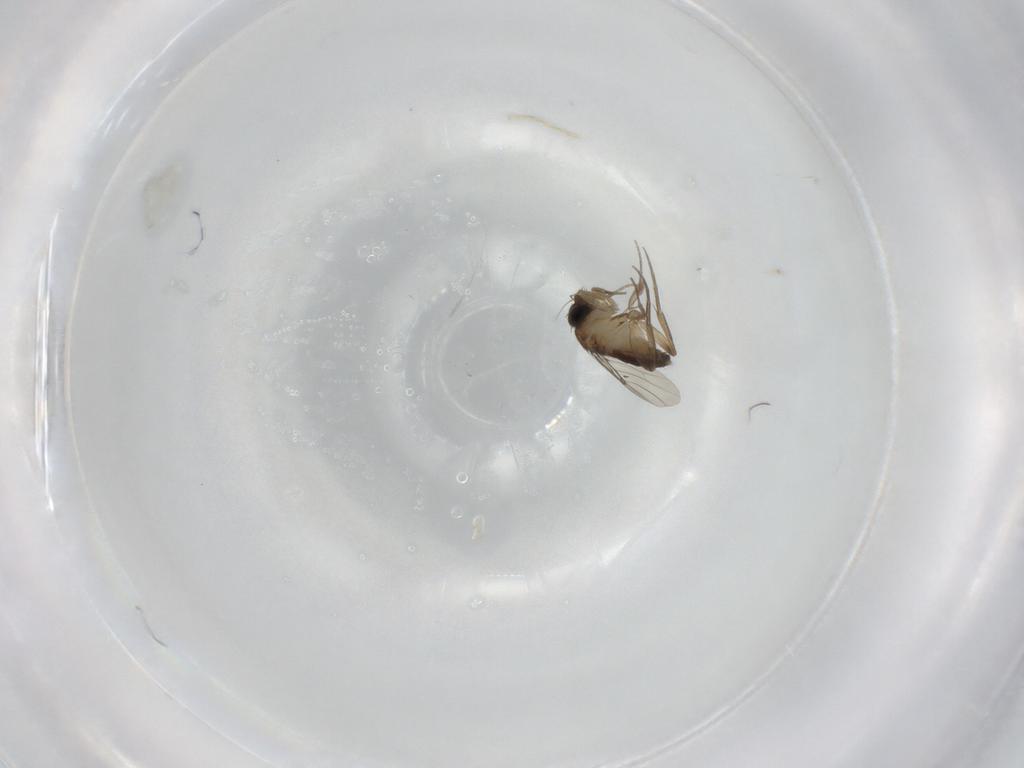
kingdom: Animalia
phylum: Arthropoda
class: Insecta
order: Diptera
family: Phoridae
